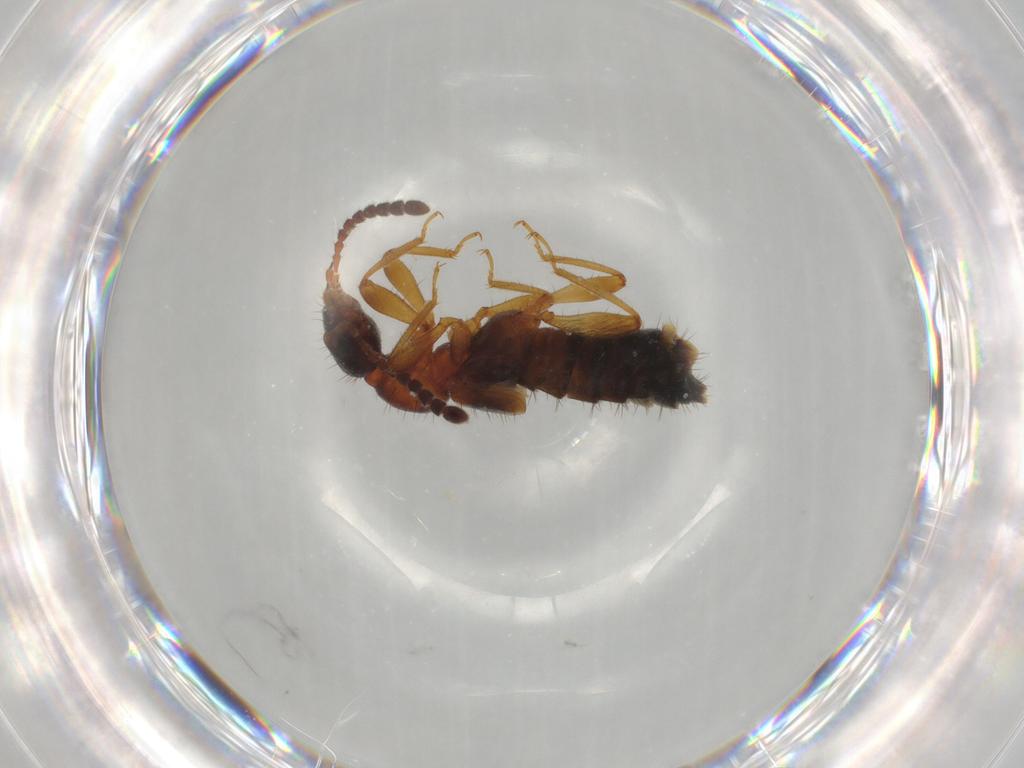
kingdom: Animalia
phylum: Arthropoda
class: Insecta
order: Coleoptera
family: Staphylinidae
